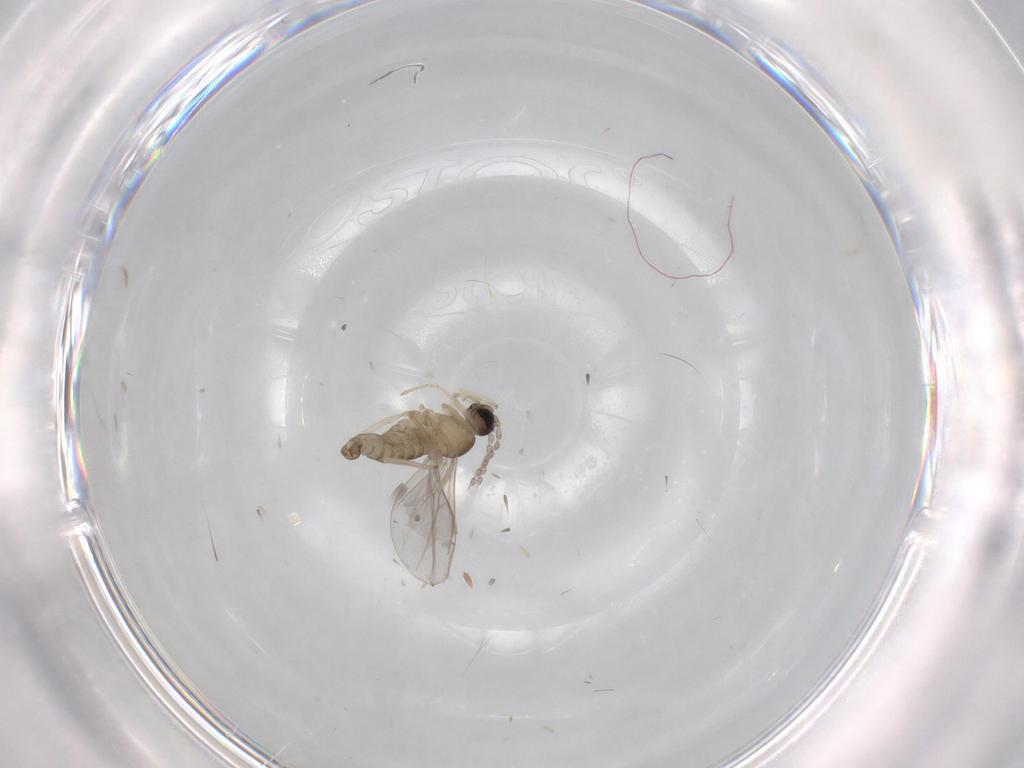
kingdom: Animalia
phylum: Arthropoda
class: Insecta
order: Diptera
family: Cecidomyiidae
